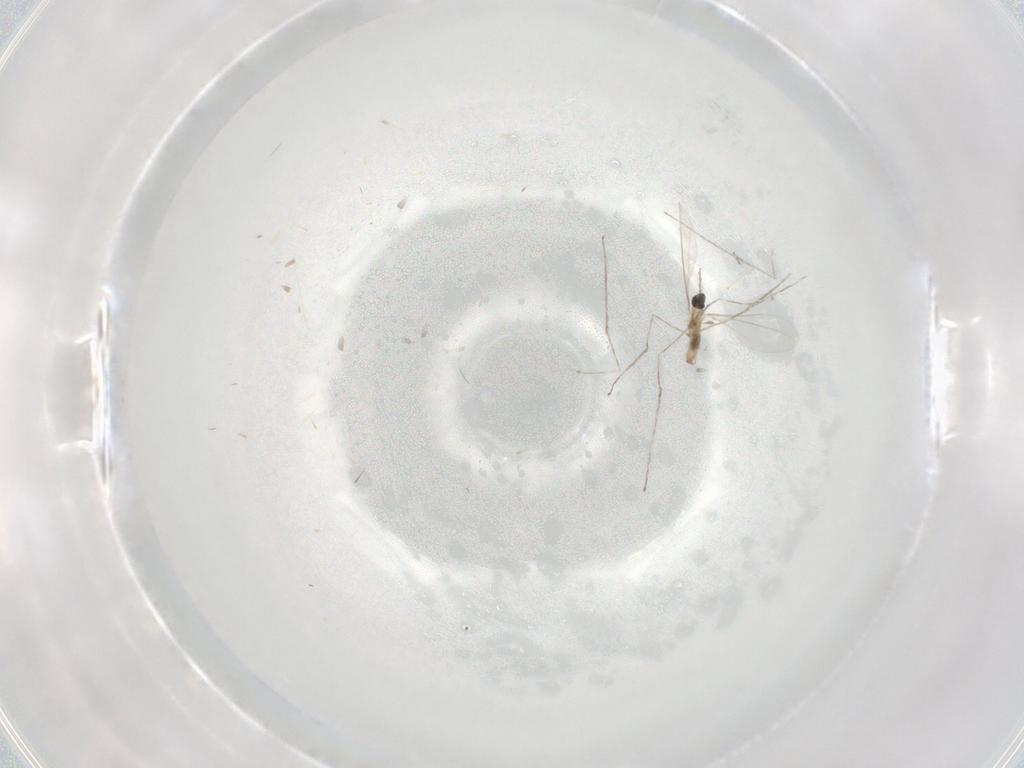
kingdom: Animalia
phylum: Arthropoda
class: Insecta
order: Diptera
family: Cecidomyiidae
